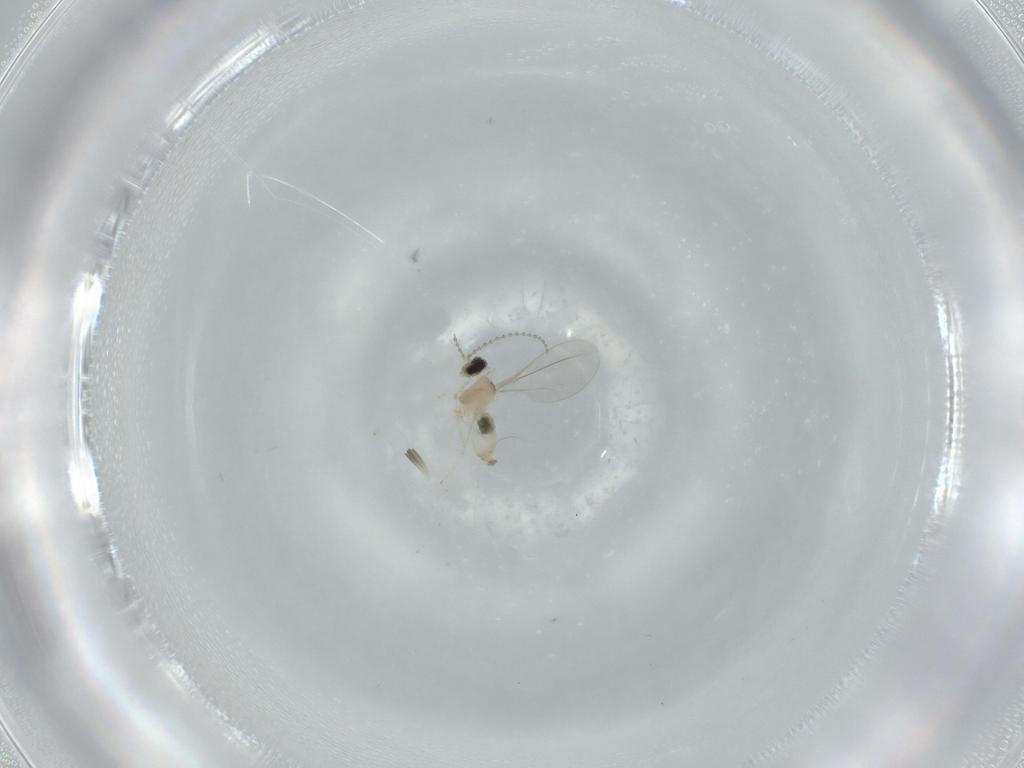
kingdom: Animalia
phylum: Arthropoda
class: Insecta
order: Diptera
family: Cecidomyiidae
